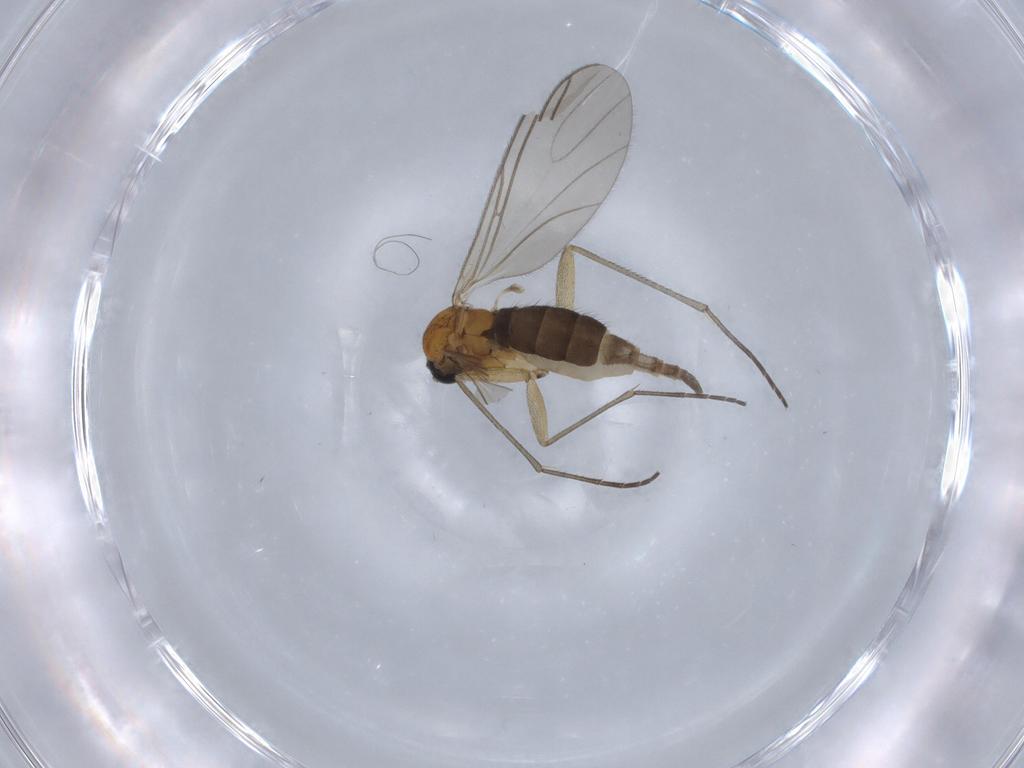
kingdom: Animalia
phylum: Arthropoda
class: Insecta
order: Diptera
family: Sciaridae
